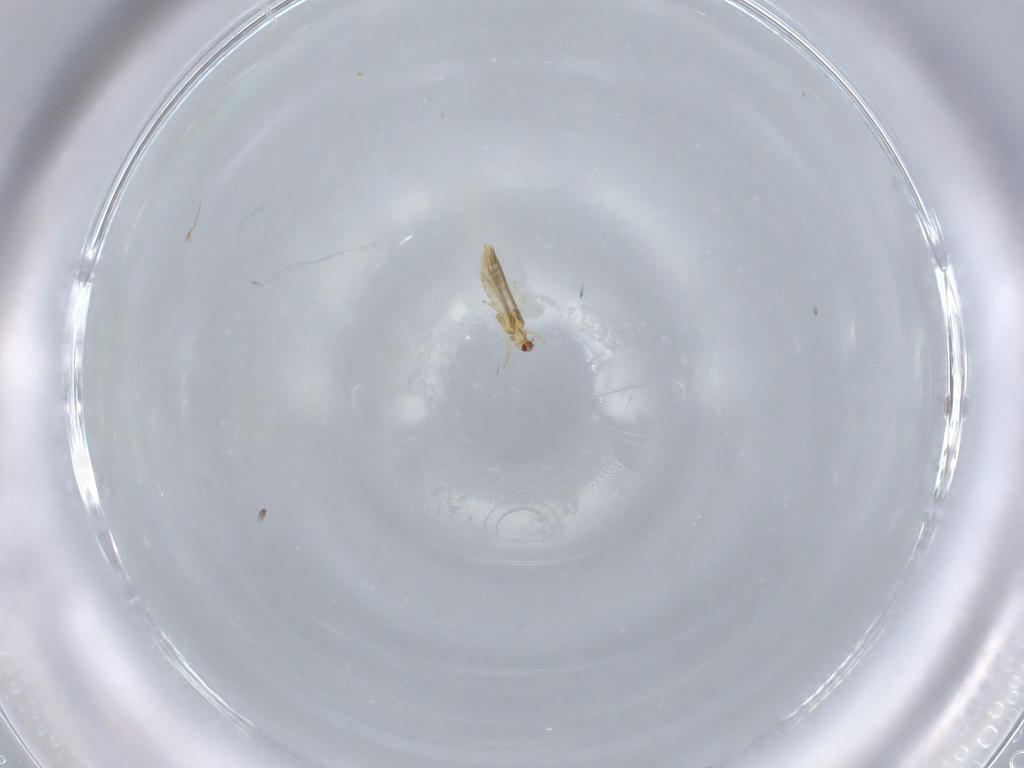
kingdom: Animalia
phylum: Arthropoda
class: Insecta
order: Thysanoptera
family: Thripidae
